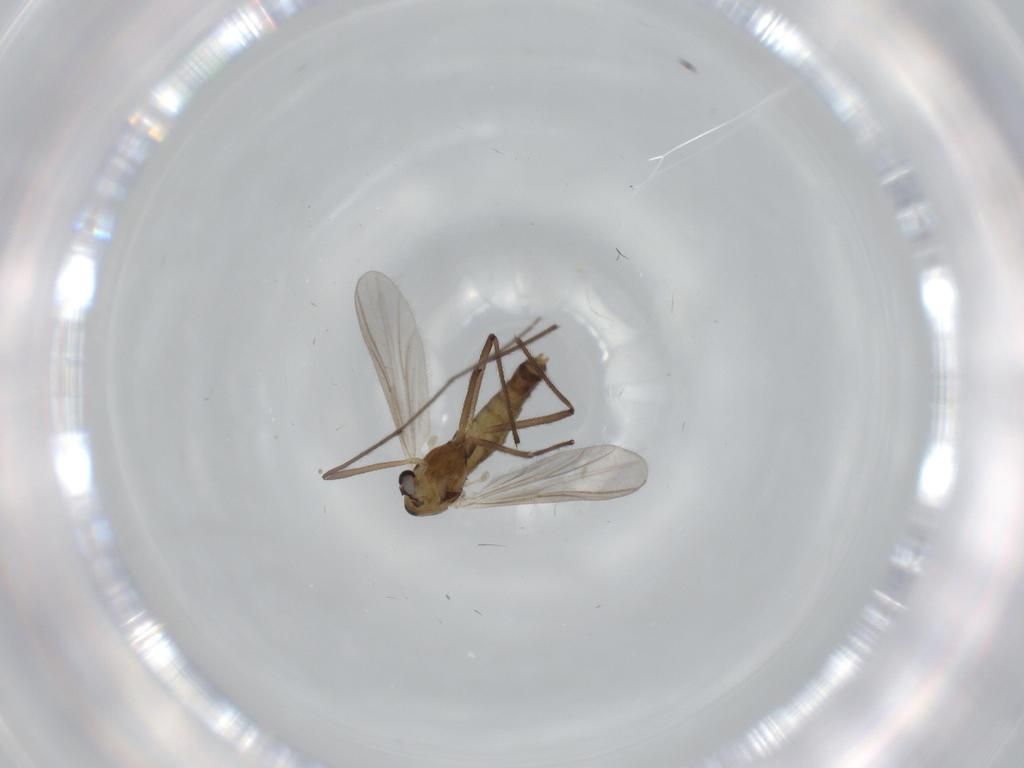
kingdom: Animalia
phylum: Arthropoda
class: Insecta
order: Diptera
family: Chironomidae
